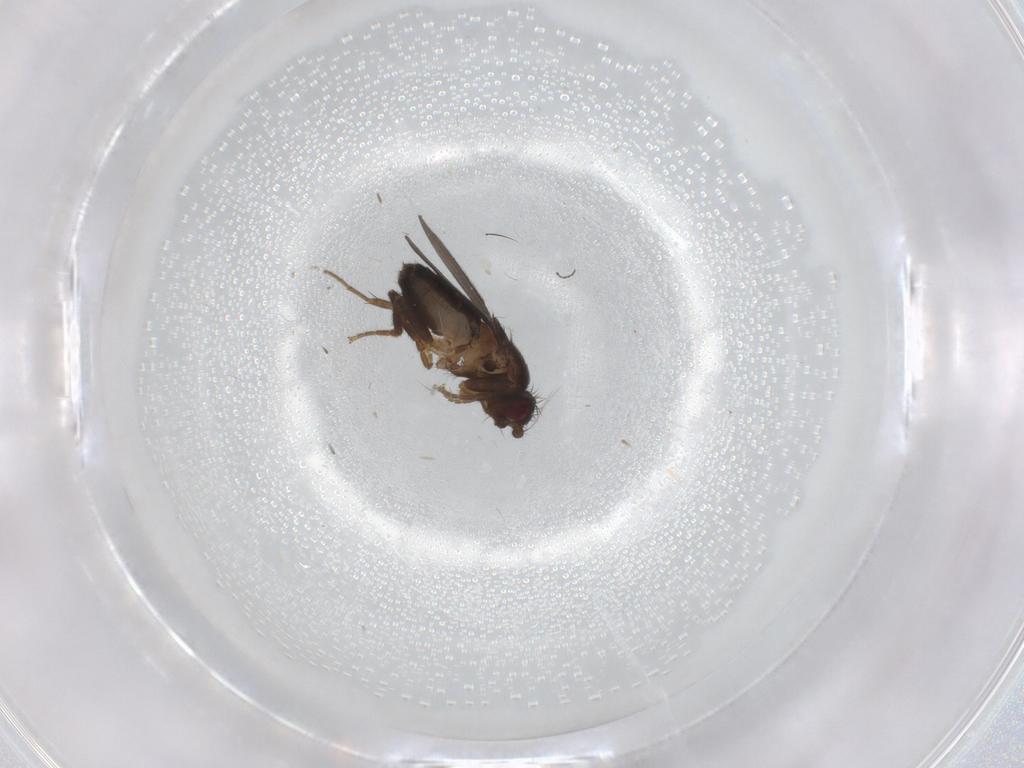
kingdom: Animalia
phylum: Arthropoda
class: Insecta
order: Diptera
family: Sphaeroceridae
